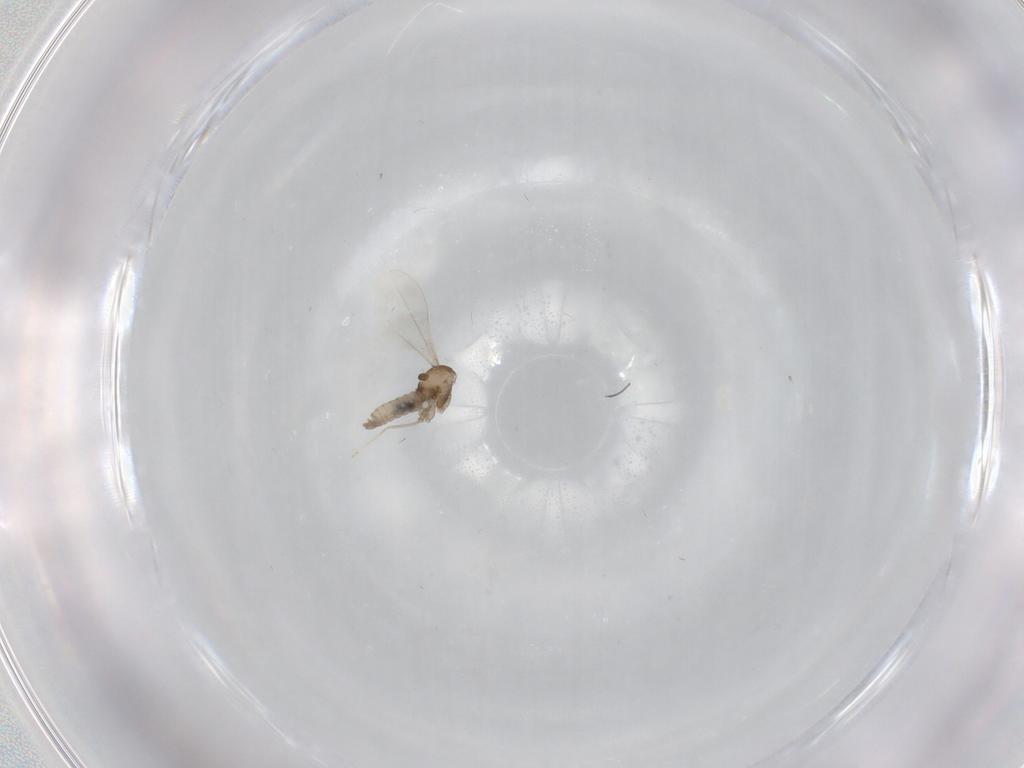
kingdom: Animalia
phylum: Arthropoda
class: Insecta
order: Diptera
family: Cecidomyiidae
